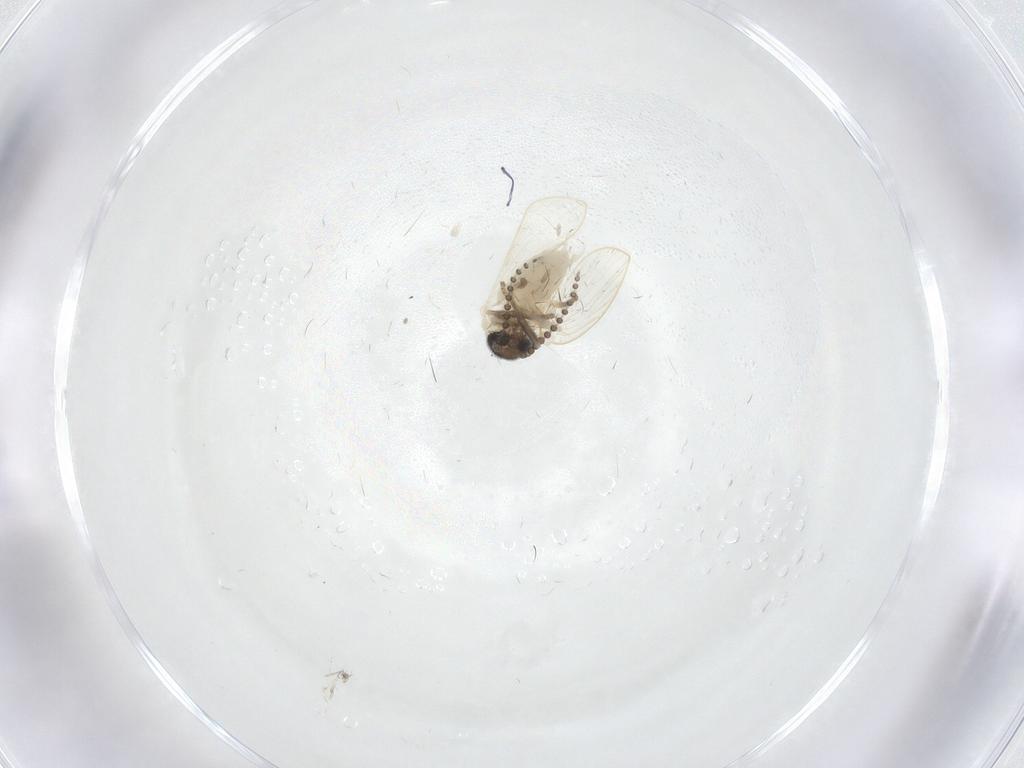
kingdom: Animalia
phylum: Arthropoda
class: Insecta
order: Diptera
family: Psychodidae
